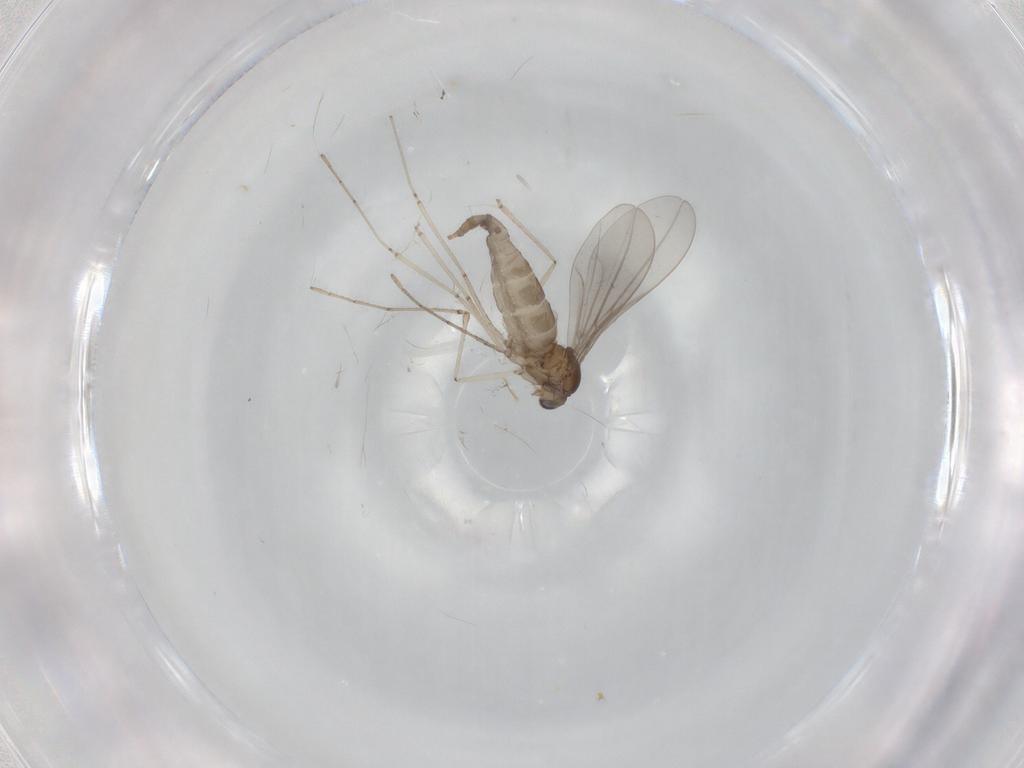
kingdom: Animalia
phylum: Arthropoda
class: Insecta
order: Diptera
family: Cecidomyiidae
